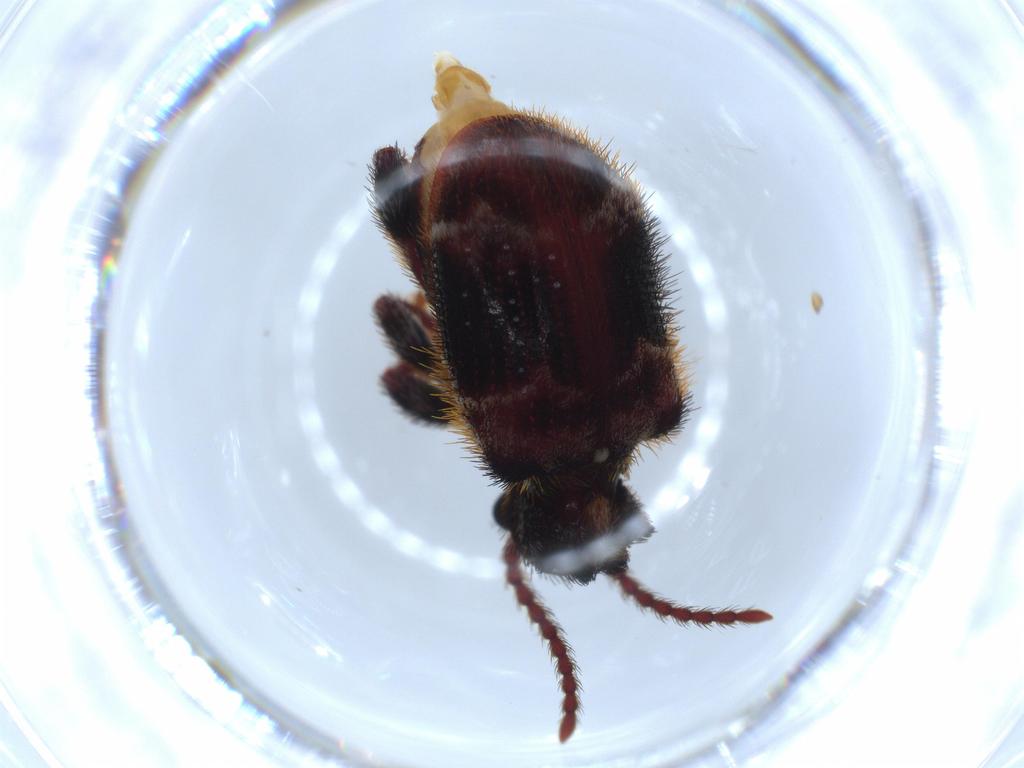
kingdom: Animalia
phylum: Arthropoda
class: Insecta
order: Coleoptera
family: Ptinidae
